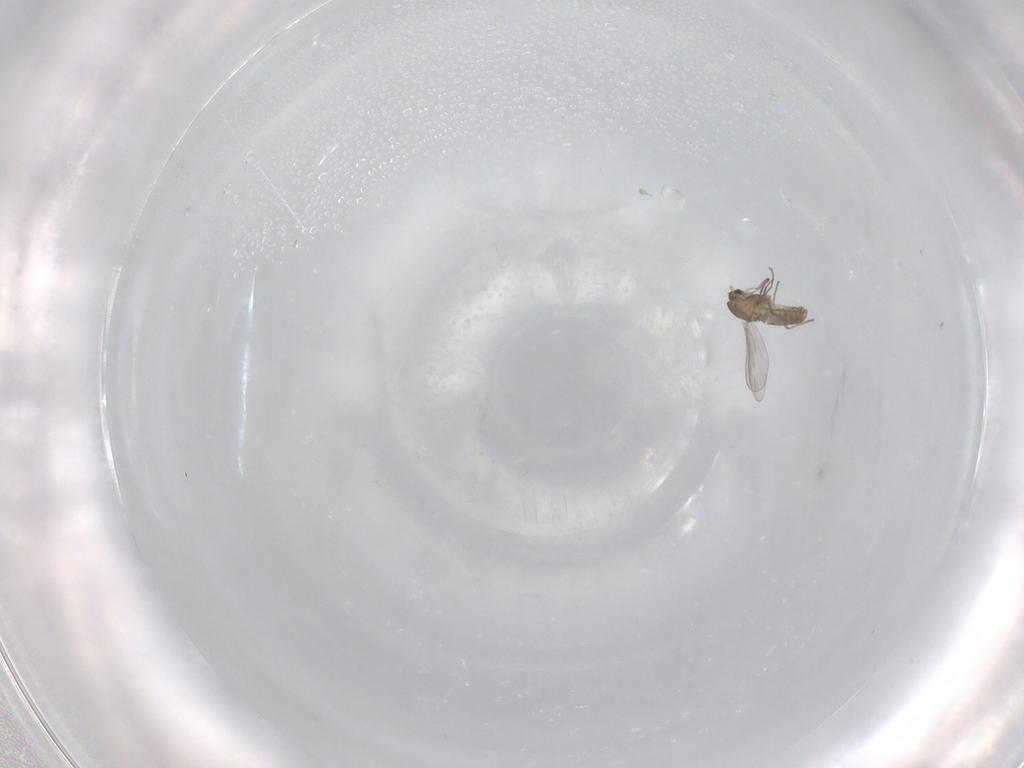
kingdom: Animalia
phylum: Arthropoda
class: Insecta
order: Diptera
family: Chironomidae
